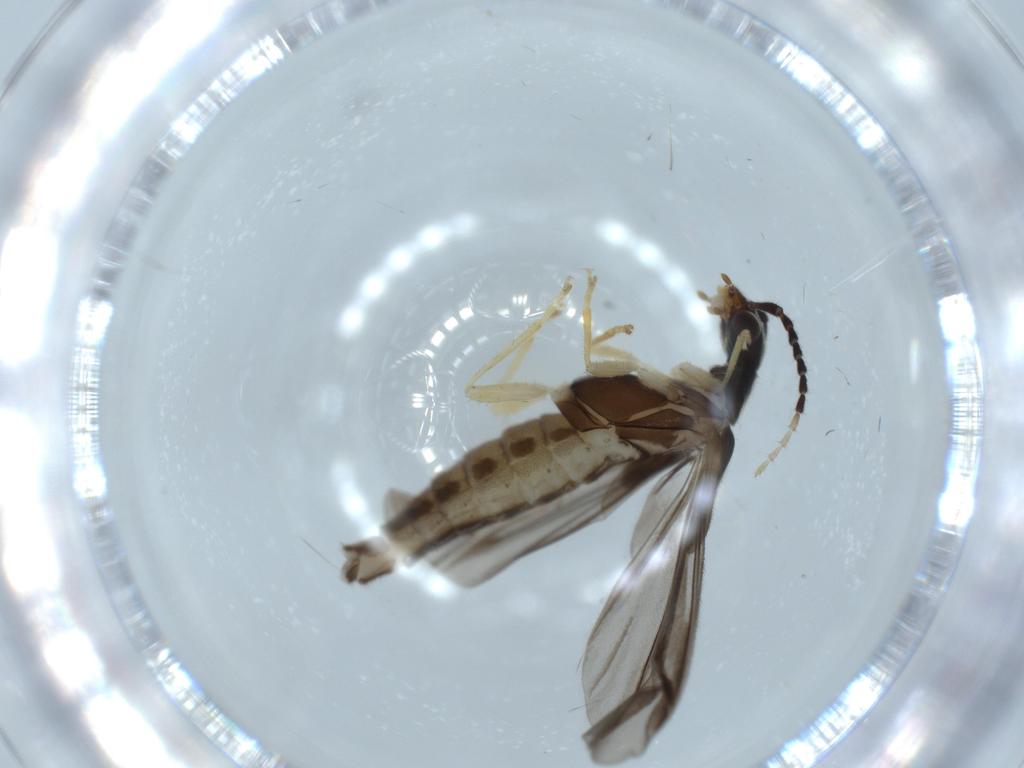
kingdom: Animalia
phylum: Arthropoda
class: Insecta
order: Coleoptera
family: Cantharidae
